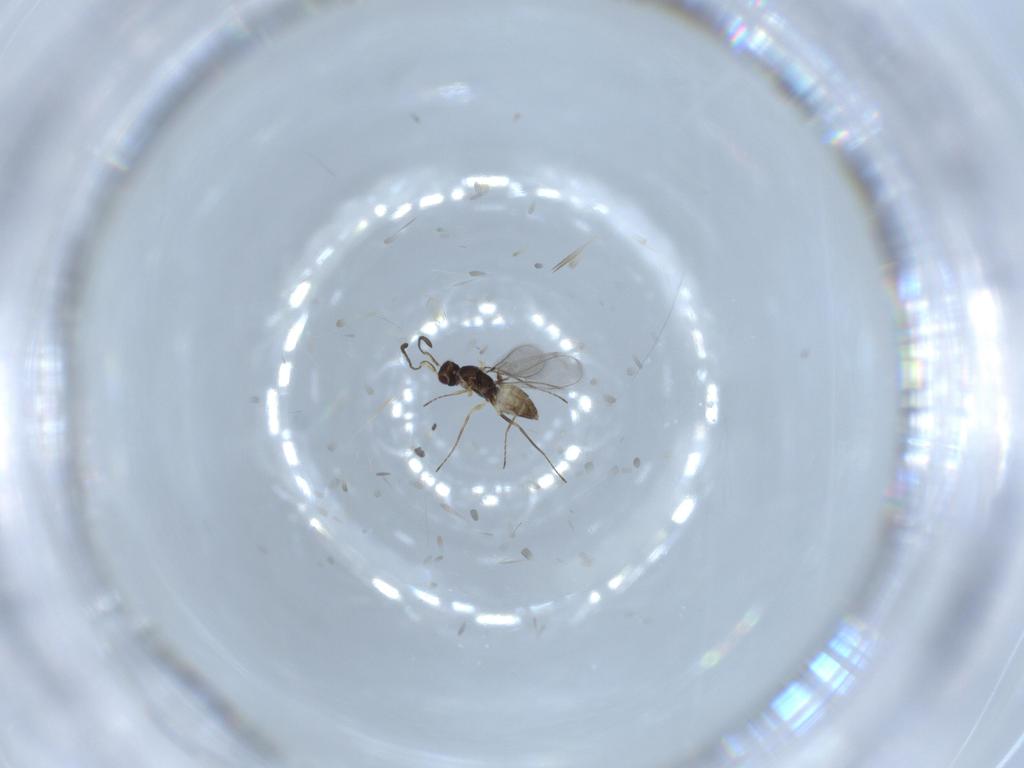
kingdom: Animalia
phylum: Arthropoda
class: Insecta
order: Hymenoptera
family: Mymaridae
